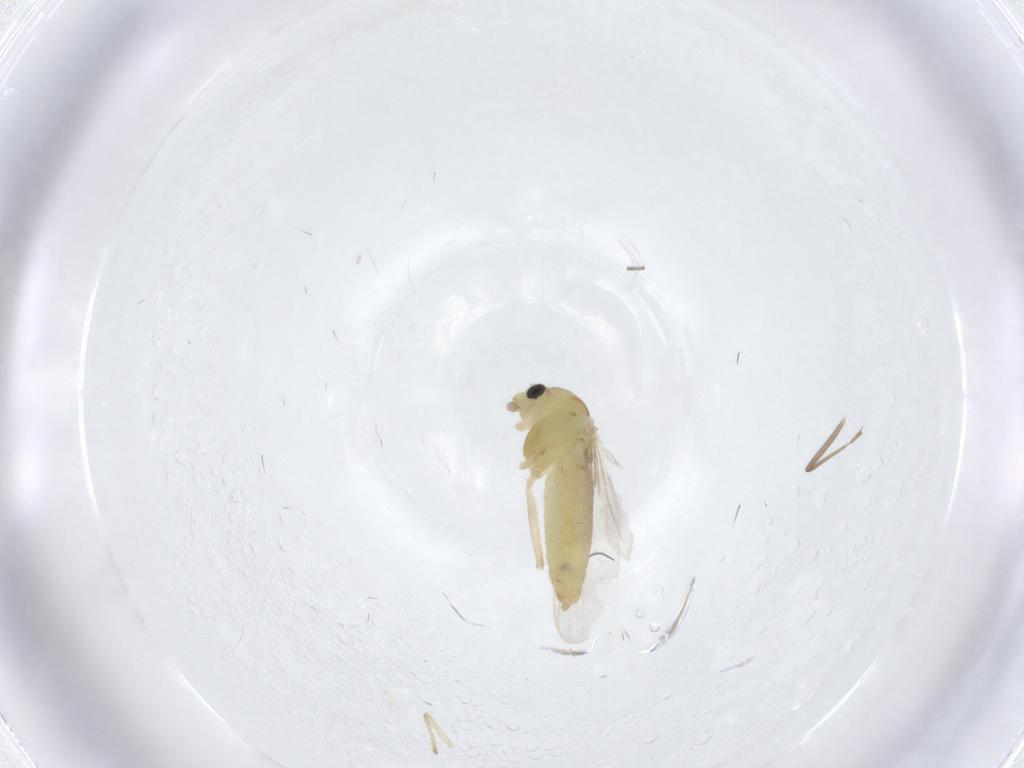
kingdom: Animalia
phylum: Arthropoda
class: Insecta
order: Diptera
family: Chironomidae
